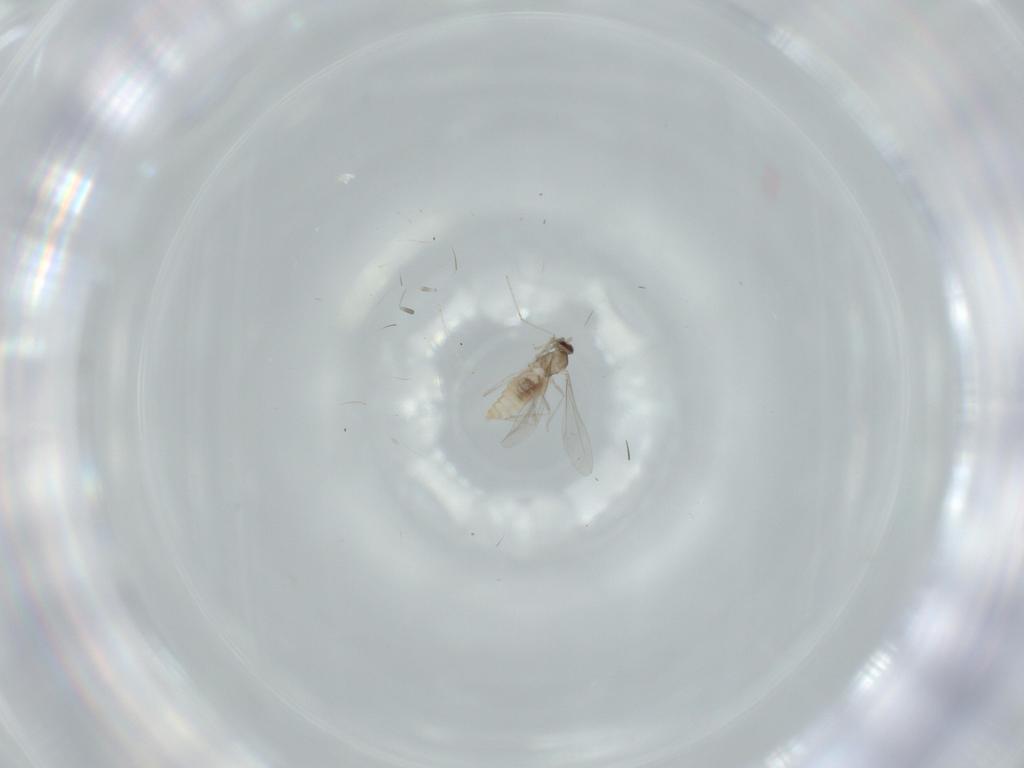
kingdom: Animalia
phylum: Arthropoda
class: Insecta
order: Diptera
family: Cecidomyiidae
